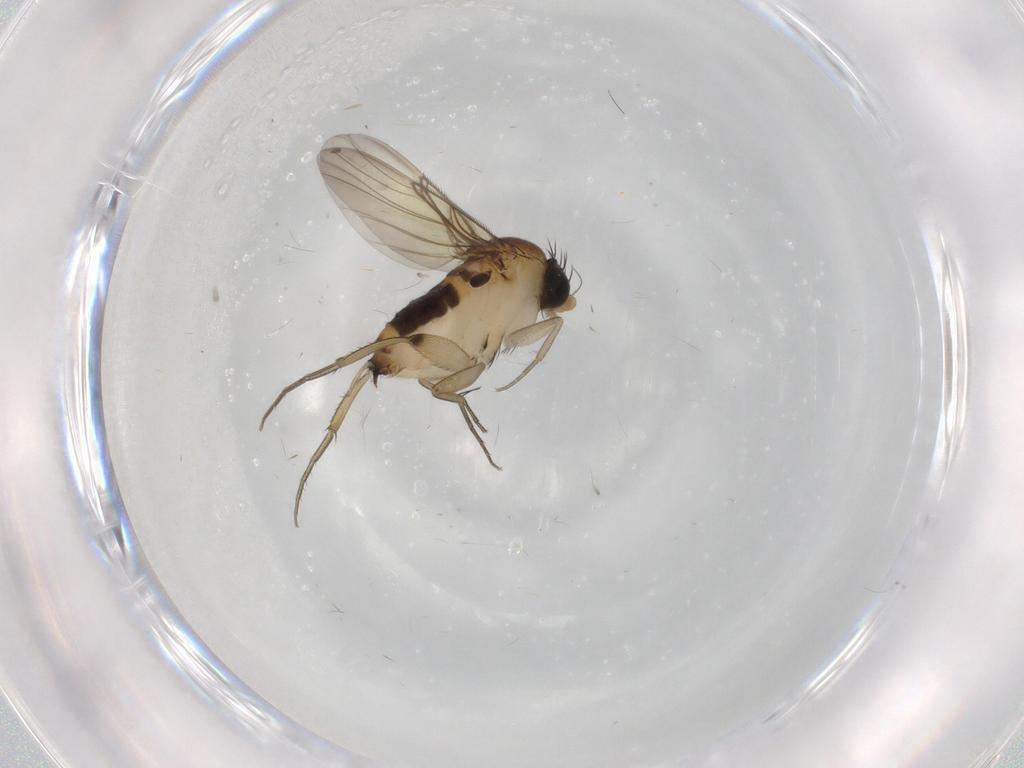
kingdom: Animalia
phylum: Arthropoda
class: Insecta
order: Diptera
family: Phoridae
